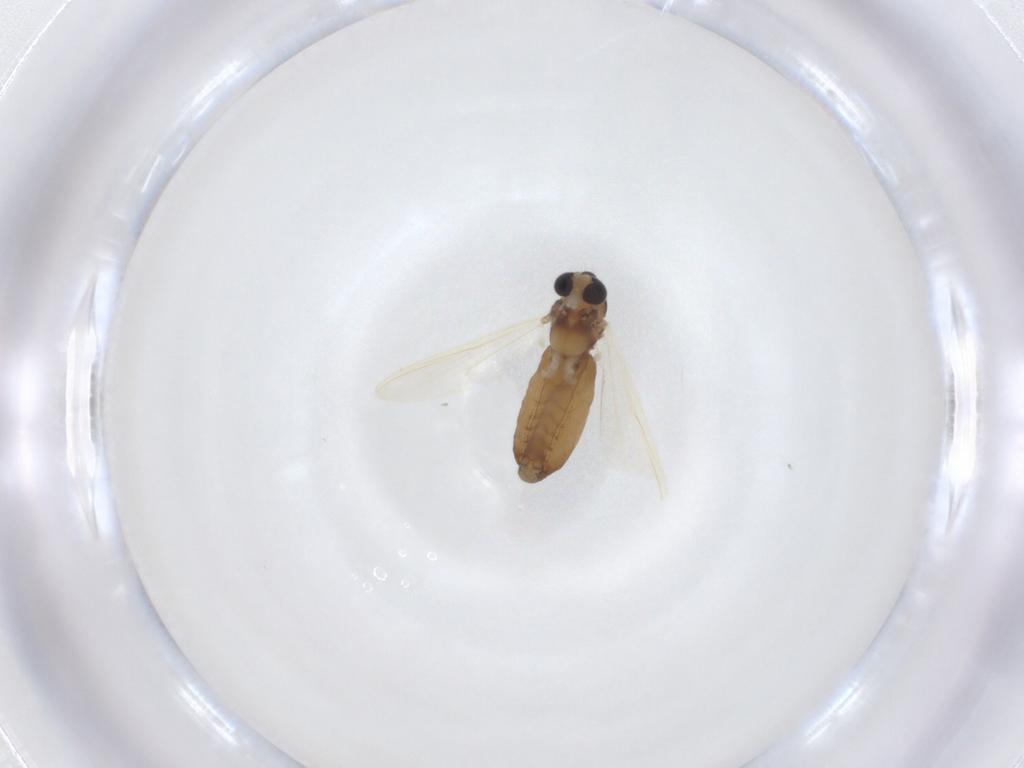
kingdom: Animalia
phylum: Arthropoda
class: Insecta
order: Diptera
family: Chironomidae
